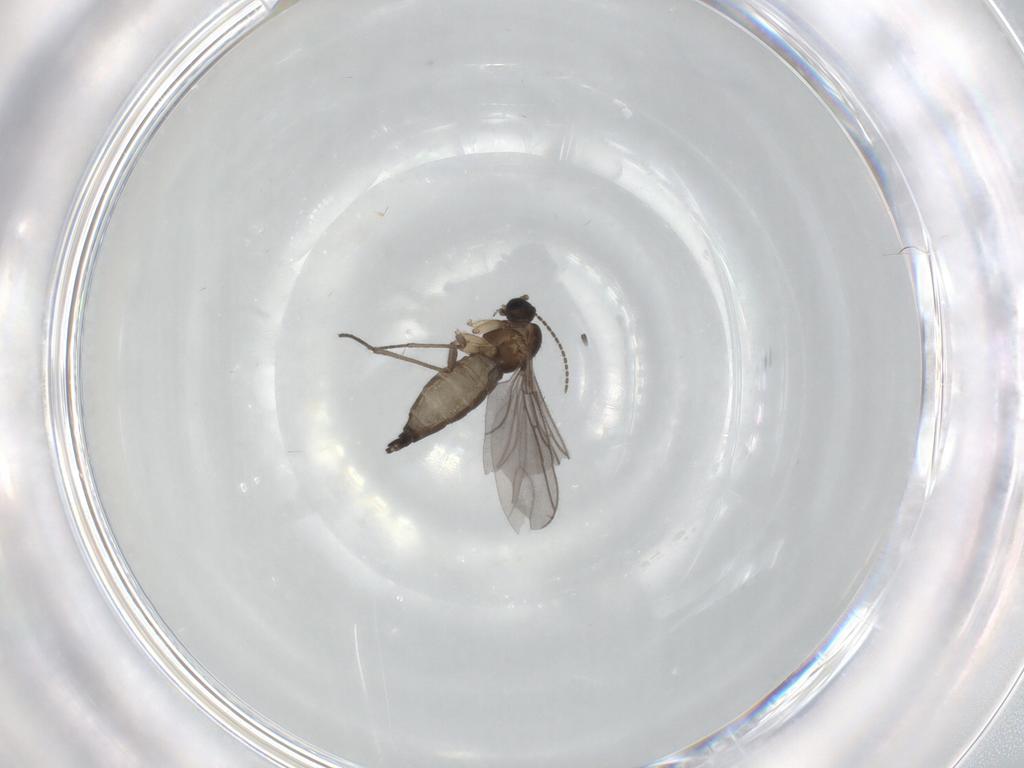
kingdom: Animalia
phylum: Arthropoda
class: Insecta
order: Diptera
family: Sciaridae
